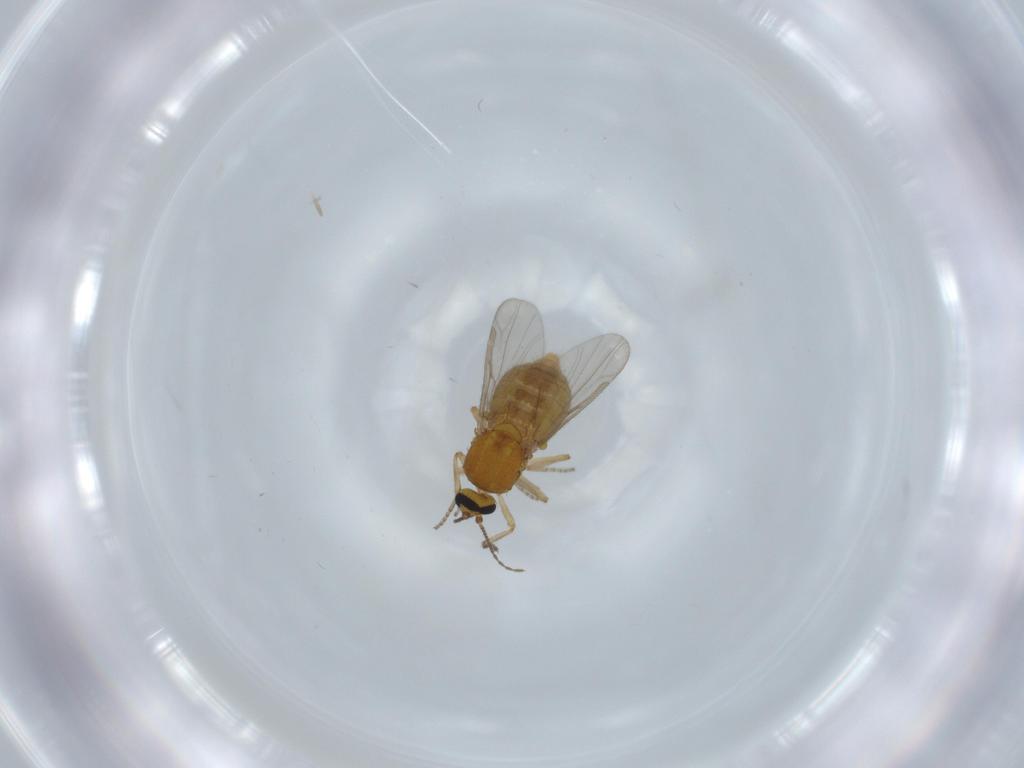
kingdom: Animalia
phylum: Arthropoda
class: Insecta
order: Diptera
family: Ceratopogonidae
